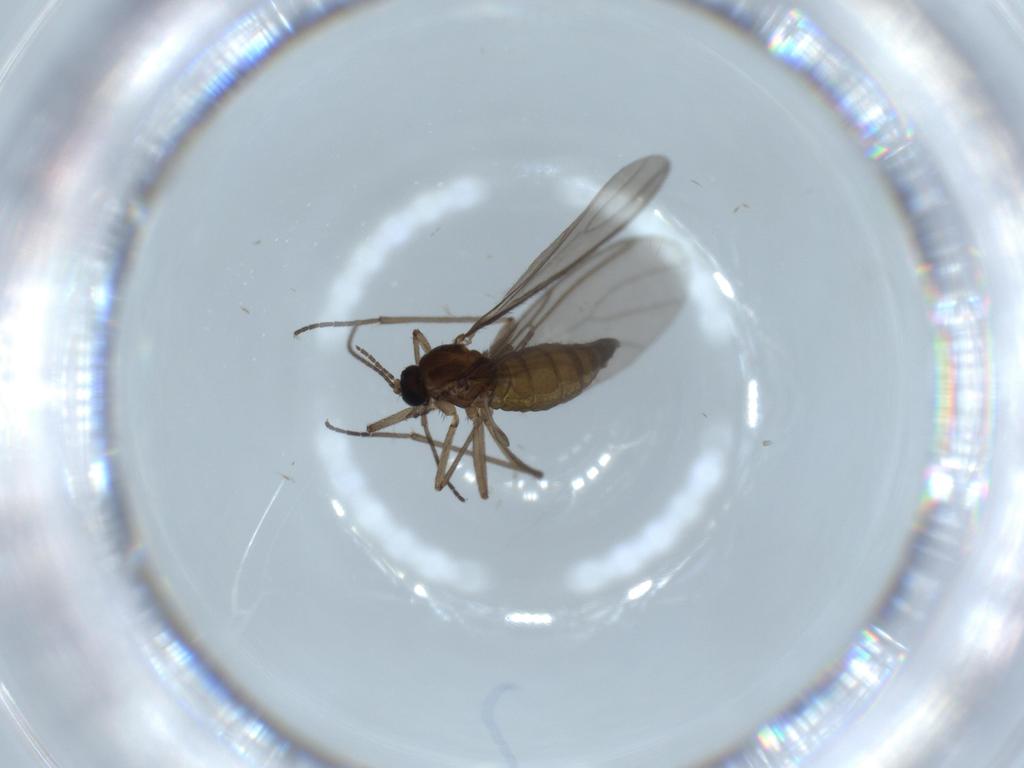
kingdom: Animalia
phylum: Arthropoda
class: Insecta
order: Diptera
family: Sciaridae
